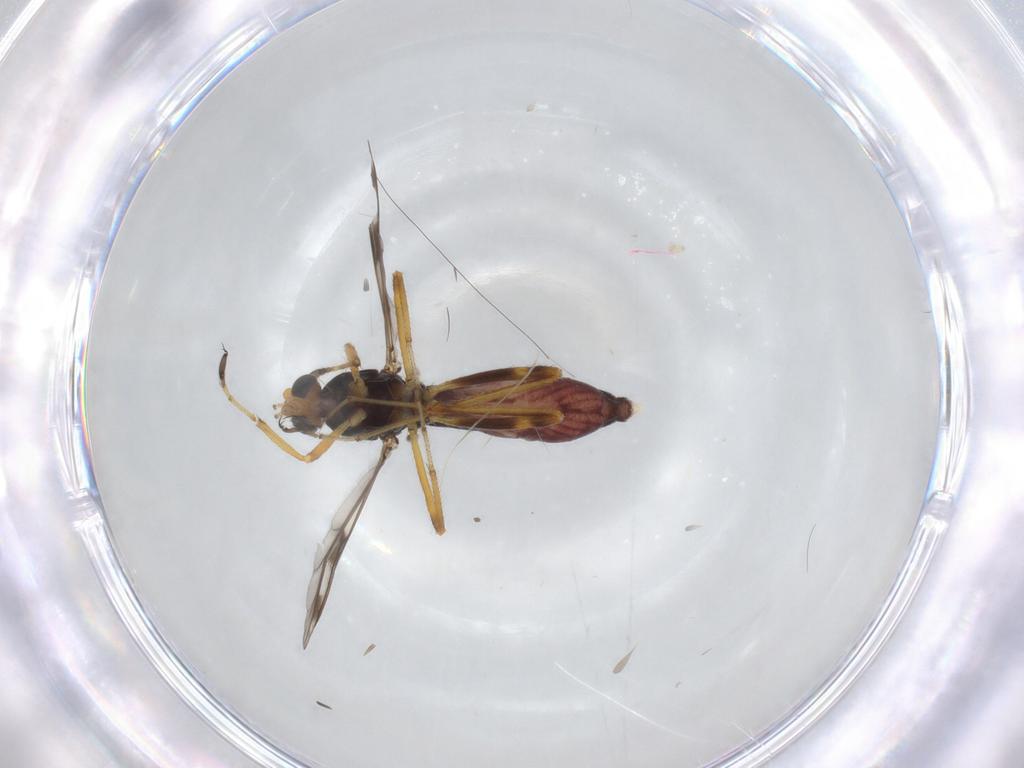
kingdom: Animalia
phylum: Arthropoda
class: Insecta
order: Diptera
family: Ceratopogonidae
